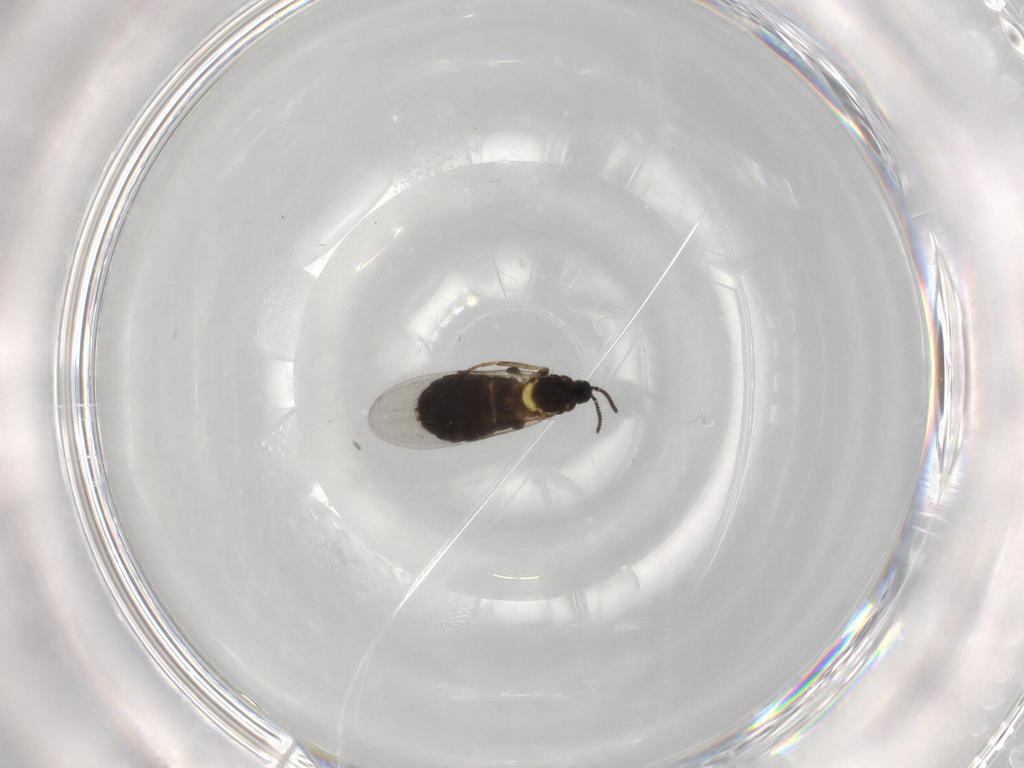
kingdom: Animalia
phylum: Arthropoda
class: Insecta
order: Diptera
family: Scatopsidae
